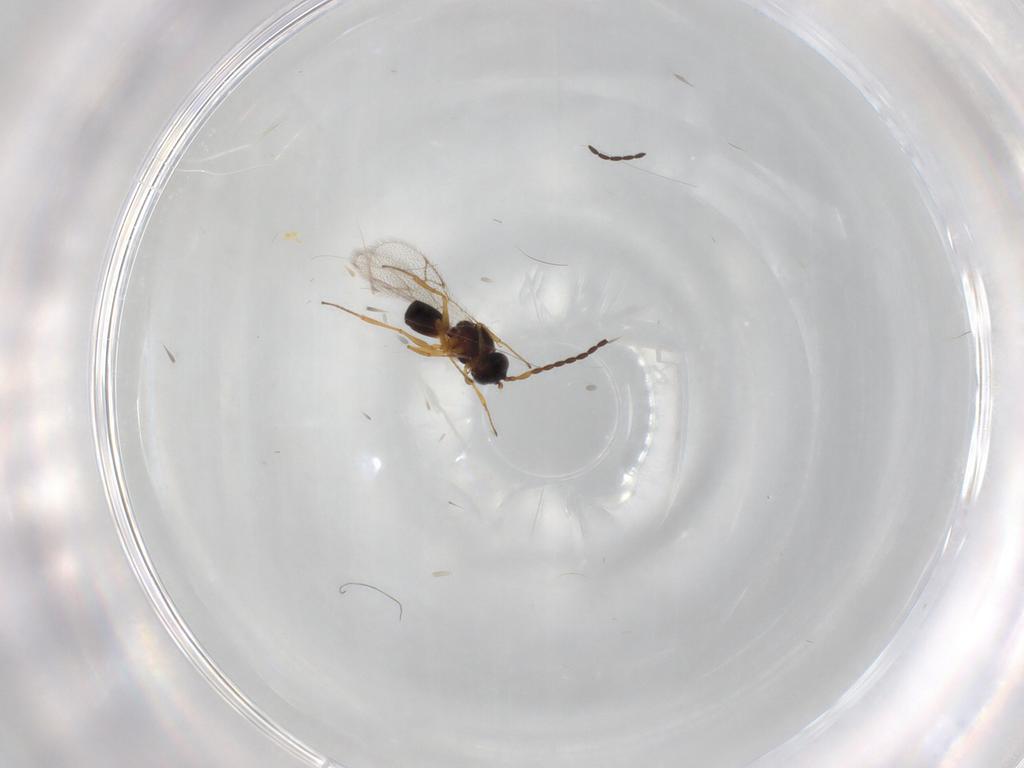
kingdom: Animalia
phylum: Arthropoda
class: Insecta
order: Hymenoptera
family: Figitidae
